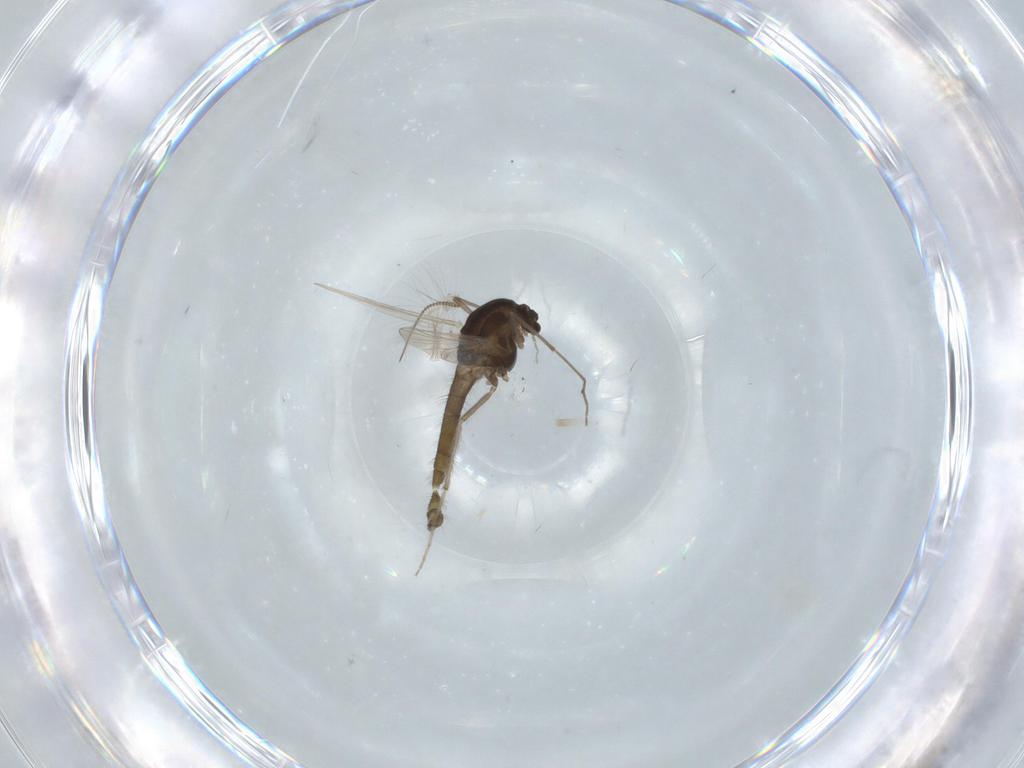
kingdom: Animalia
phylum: Arthropoda
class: Insecta
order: Diptera
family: Chironomidae
